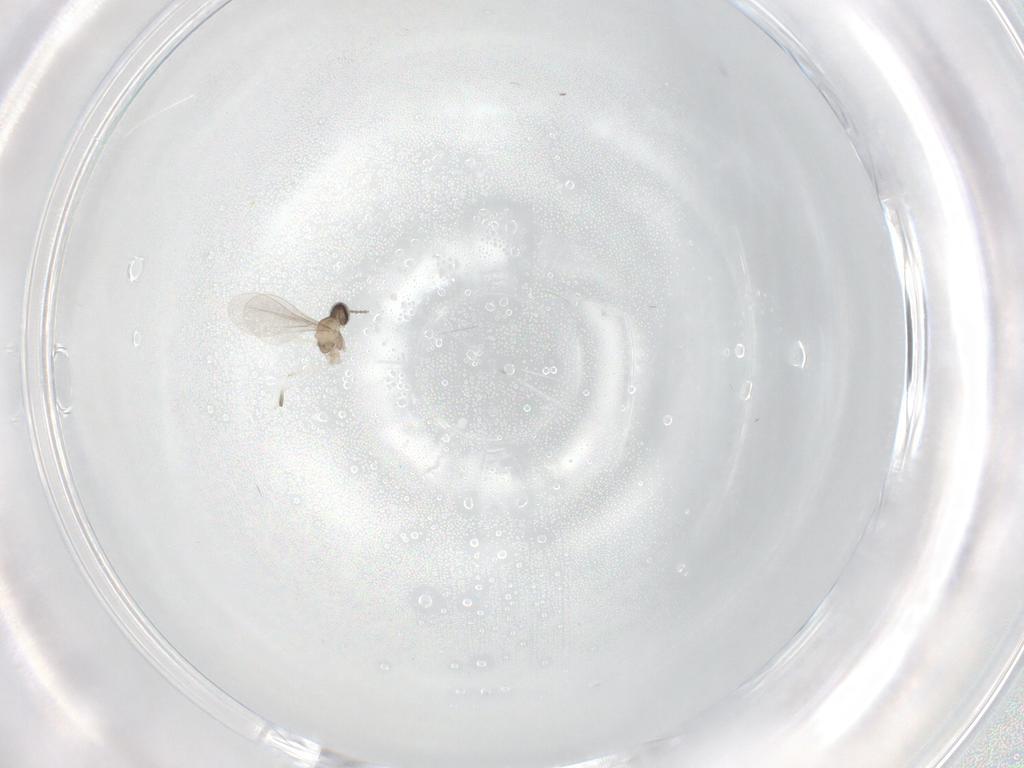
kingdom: Animalia
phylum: Arthropoda
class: Insecta
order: Diptera
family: Cecidomyiidae
